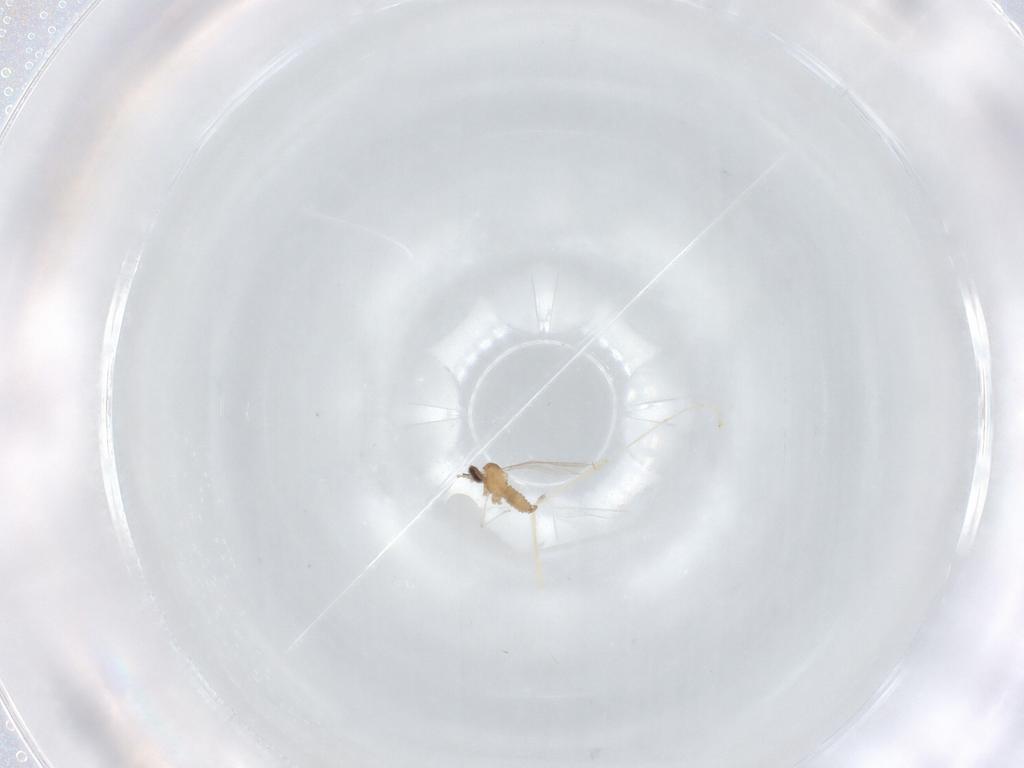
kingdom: Animalia
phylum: Arthropoda
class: Insecta
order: Diptera
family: Cecidomyiidae
